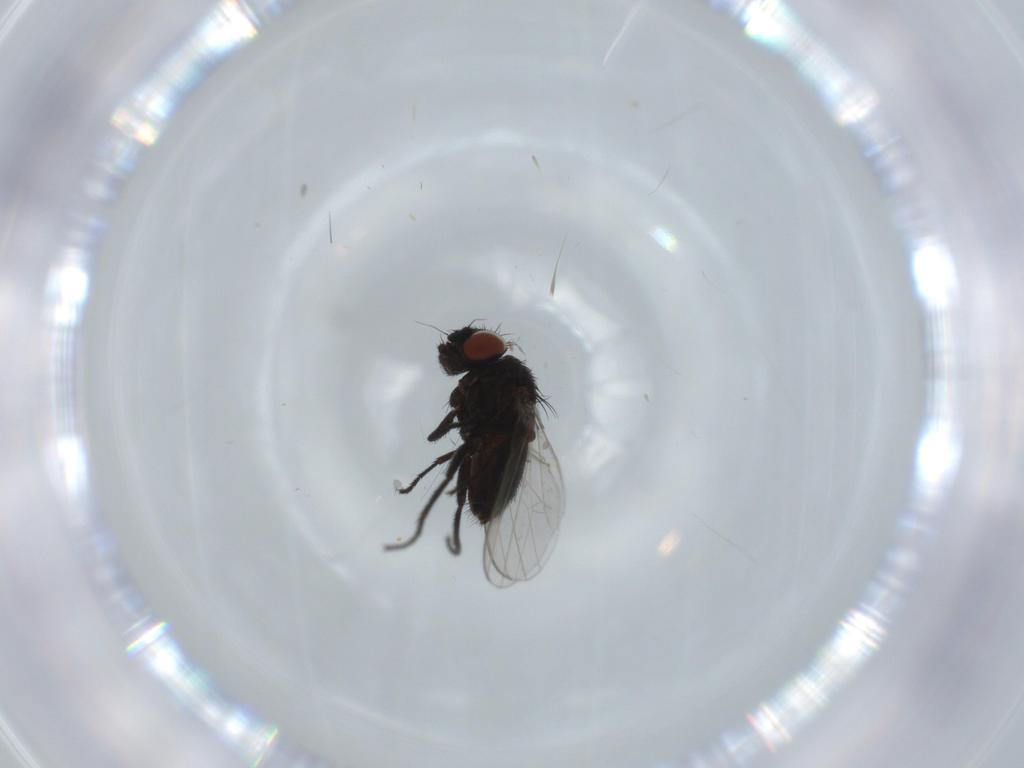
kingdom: Animalia
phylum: Arthropoda
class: Insecta
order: Diptera
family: Milichiidae
